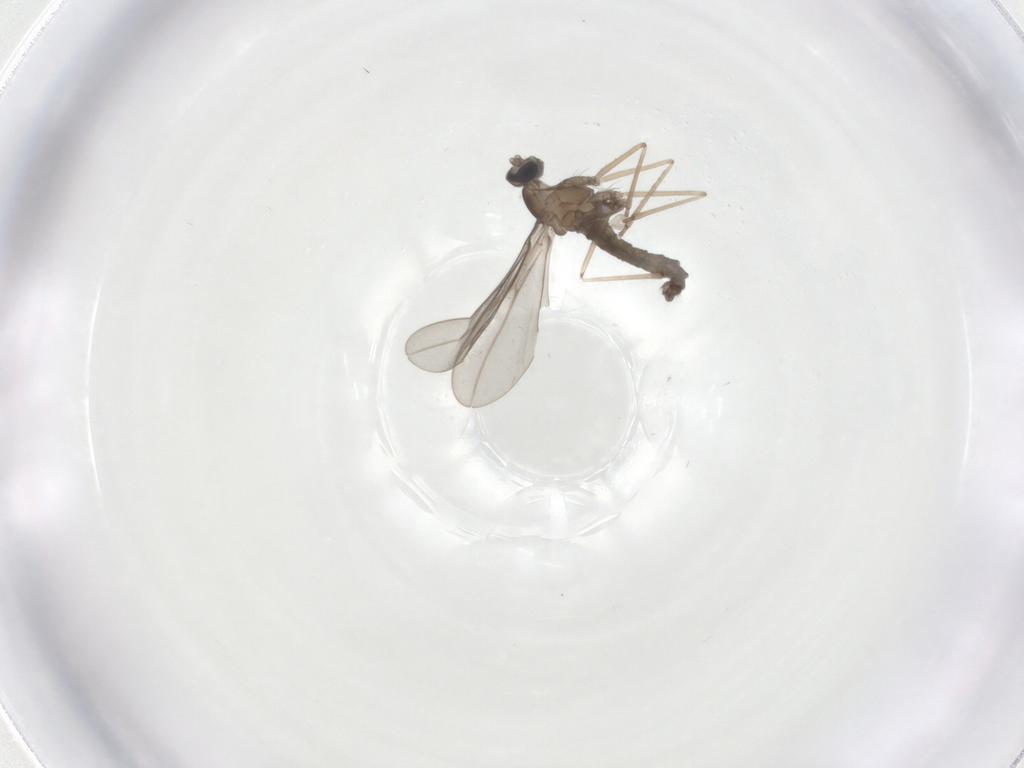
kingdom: Animalia
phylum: Arthropoda
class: Insecta
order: Diptera
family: Cecidomyiidae
